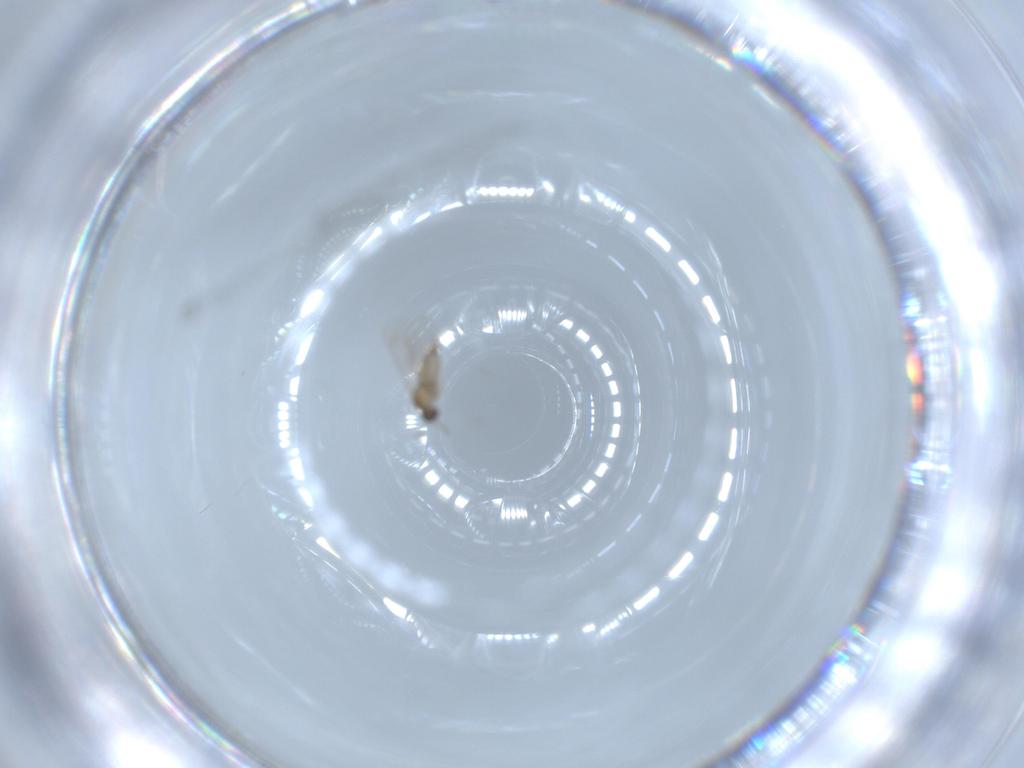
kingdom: Animalia
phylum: Arthropoda
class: Insecta
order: Diptera
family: Cecidomyiidae
